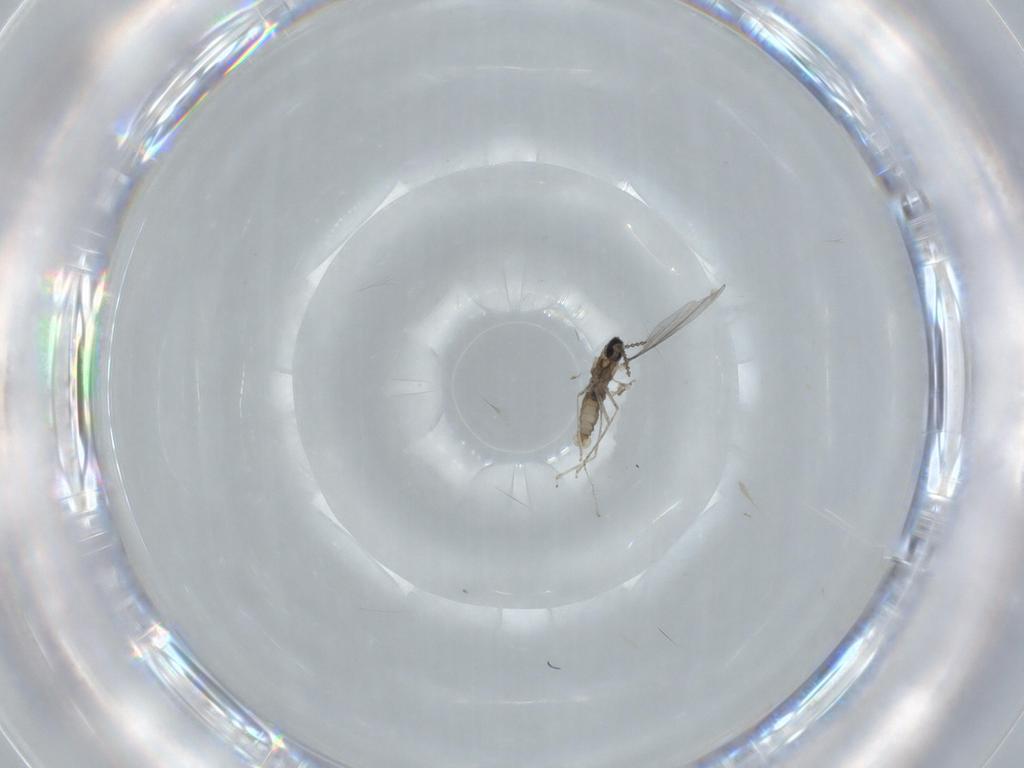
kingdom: Animalia
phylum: Arthropoda
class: Insecta
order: Diptera
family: Cecidomyiidae
